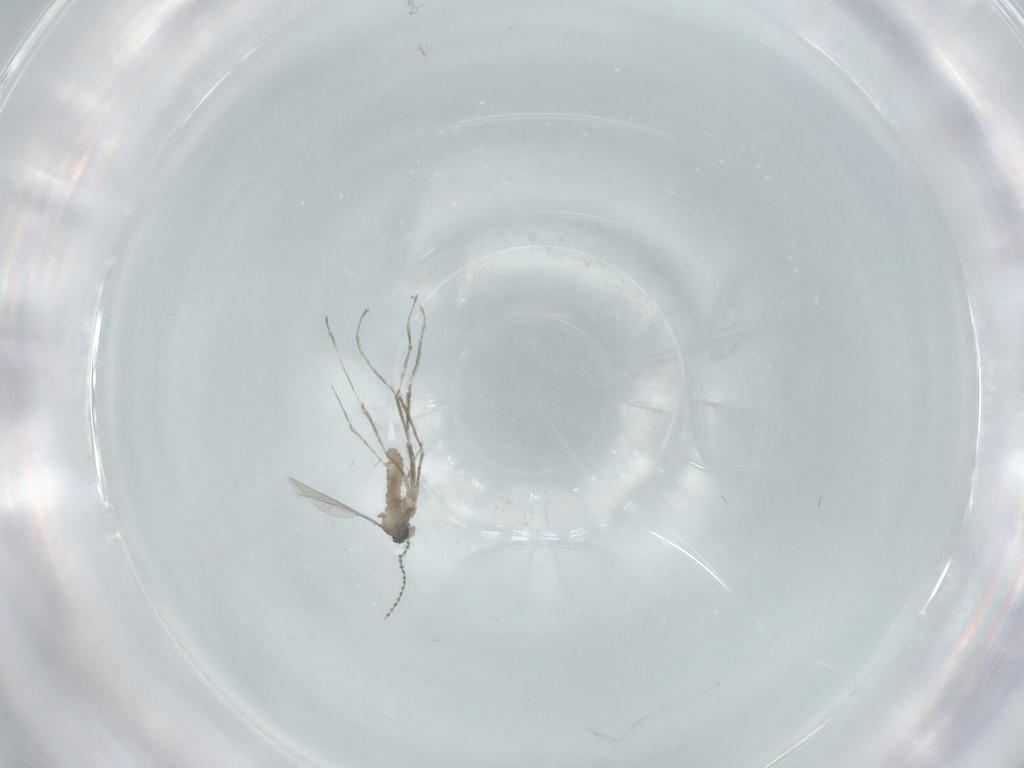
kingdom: Animalia
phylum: Arthropoda
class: Insecta
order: Diptera
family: Cecidomyiidae
